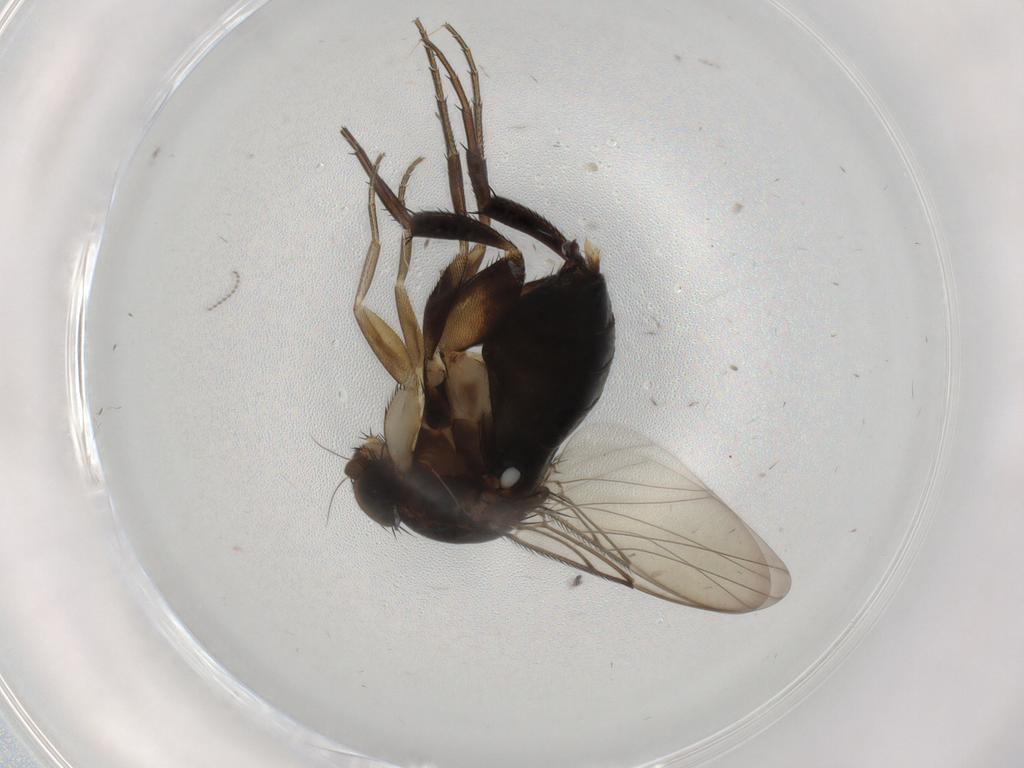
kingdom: Animalia
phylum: Arthropoda
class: Insecta
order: Diptera
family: Phoridae
